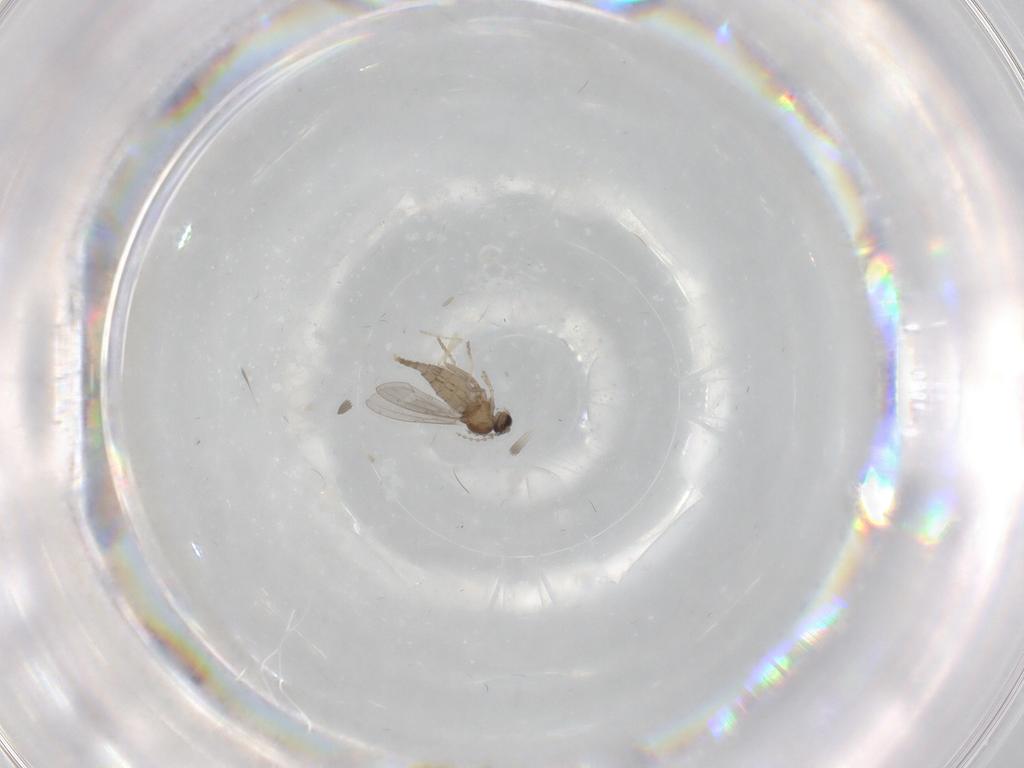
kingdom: Animalia
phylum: Arthropoda
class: Insecta
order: Diptera
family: Cecidomyiidae
